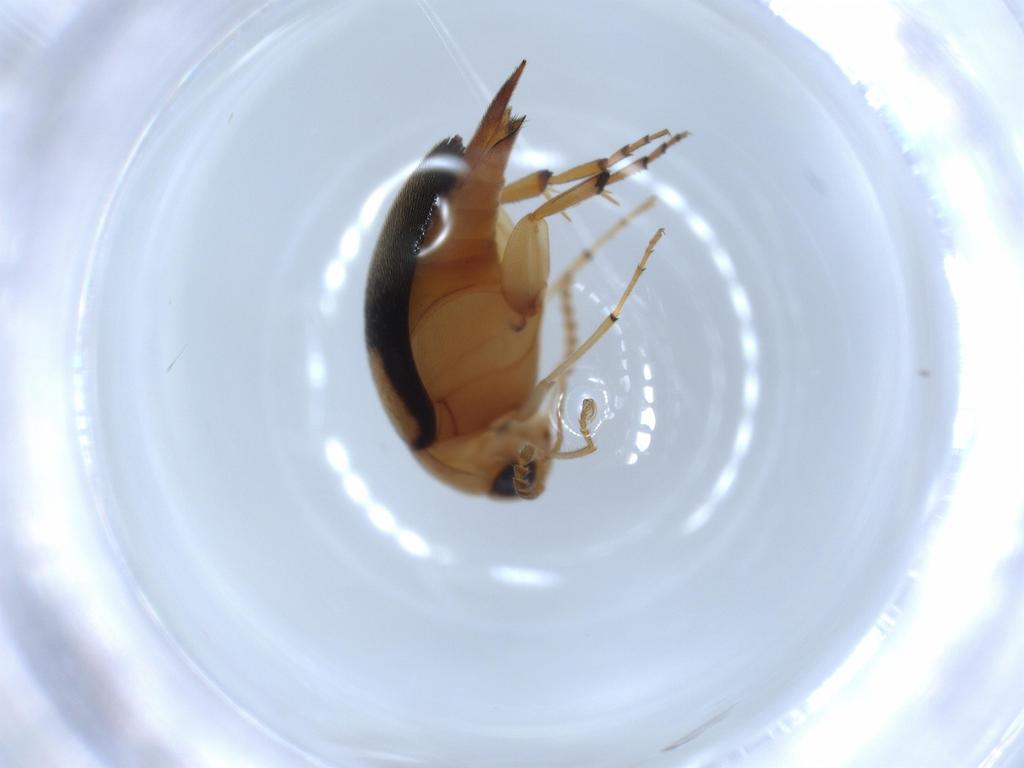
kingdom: Animalia
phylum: Arthropoda
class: Insecta
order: Coleoptera
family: Mordellidae
